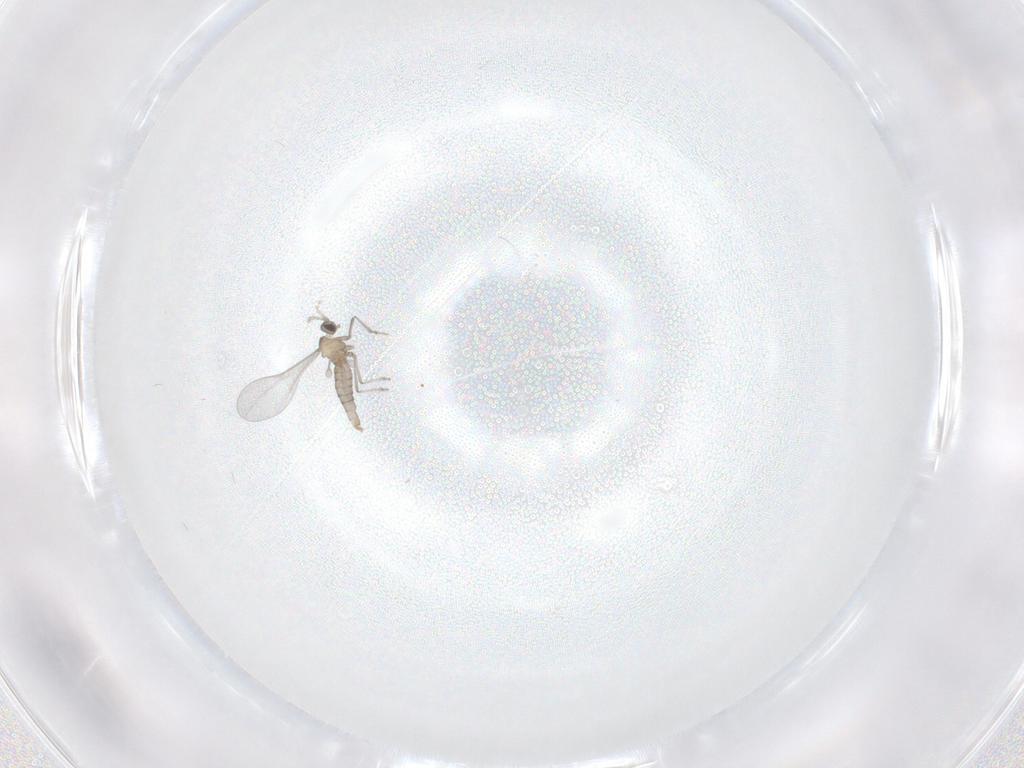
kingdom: Animalia
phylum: Arthropoda
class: Insecta
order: Diptera
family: Cecidomyiidae
